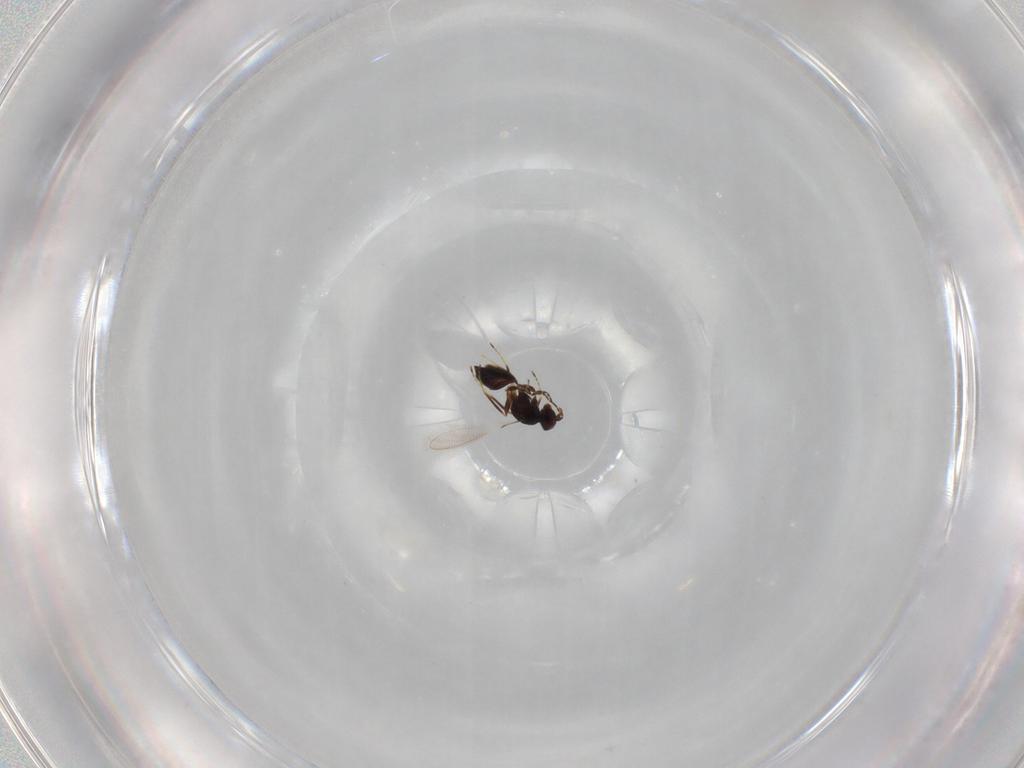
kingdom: Animalia
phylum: Arthropoda
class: Insecta
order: Hymenoptera
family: Mymaridae
